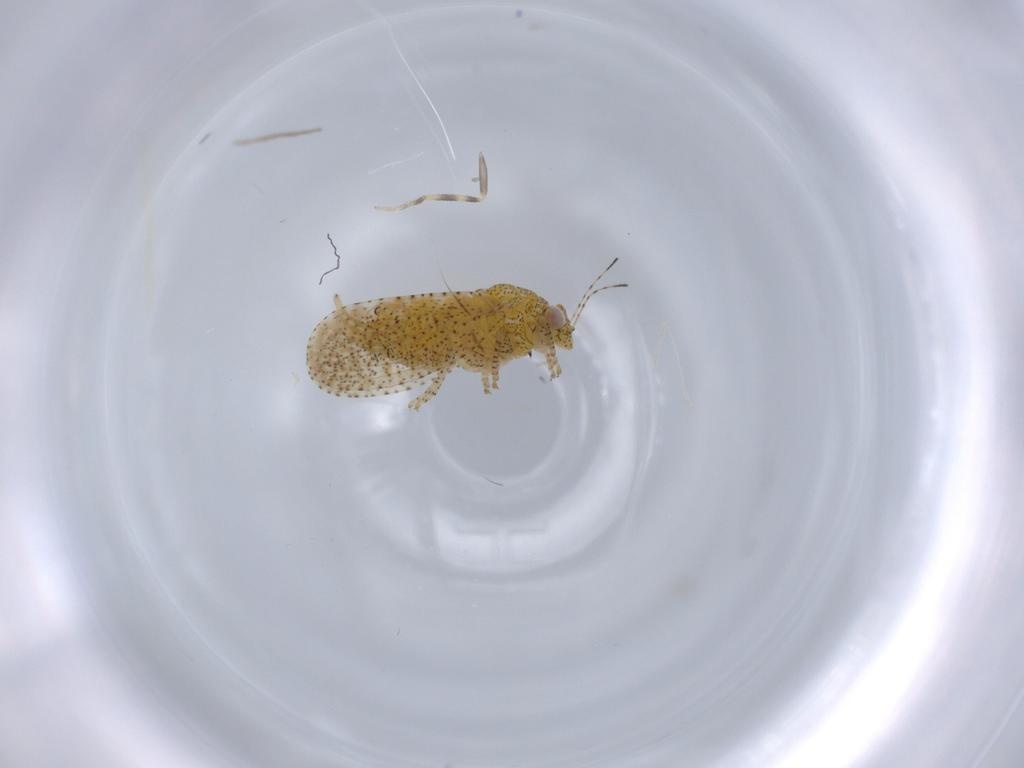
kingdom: Animalia
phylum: Arthropoda
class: Insecta
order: Hemiptera
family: Psyllidae
